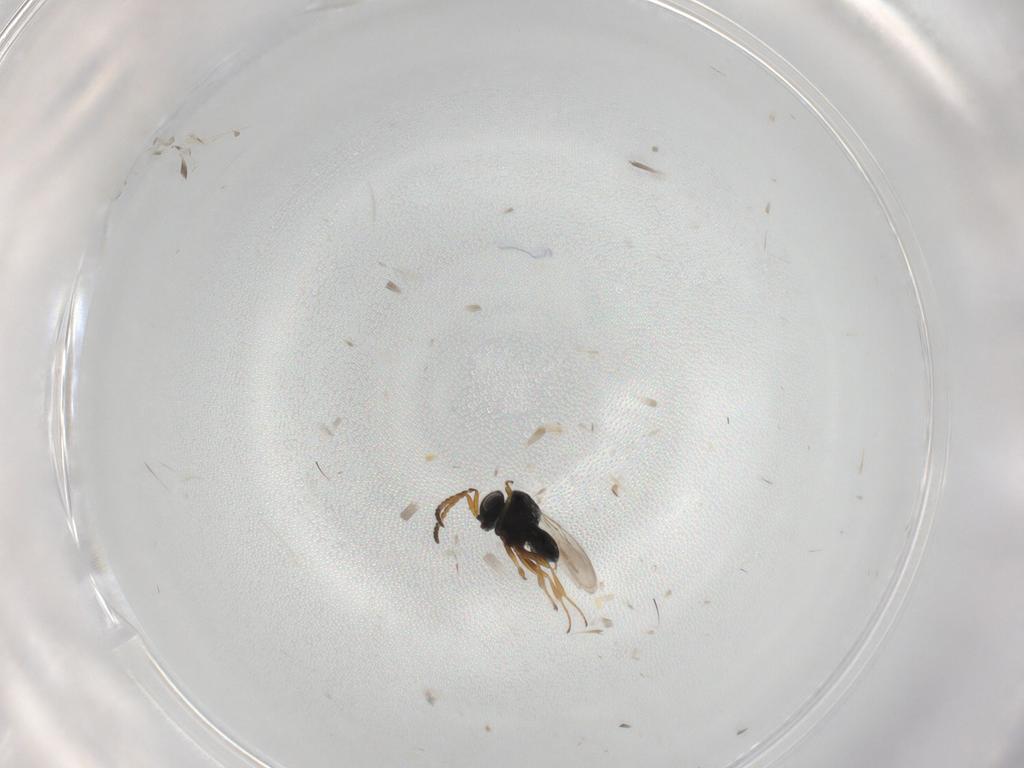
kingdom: Animalia
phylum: Arthropoda
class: Insecta
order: Hymenoptera
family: Scelionidae
